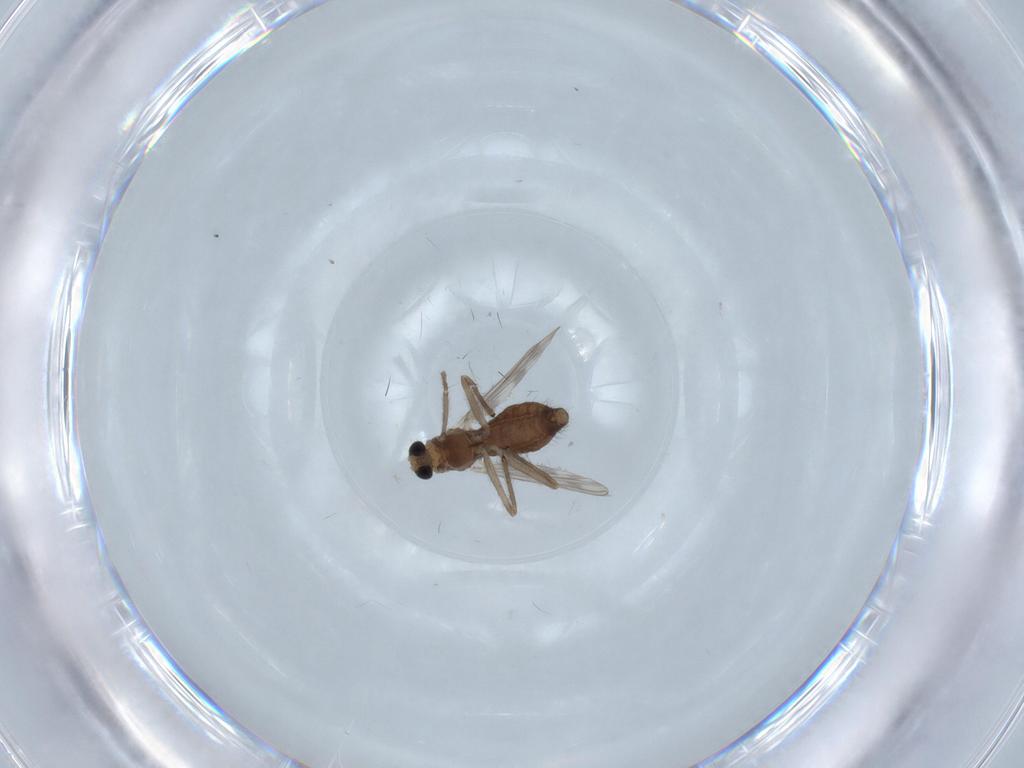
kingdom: Animalia
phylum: Arthropoda
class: Insecta
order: Diptera
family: Chironomidae
